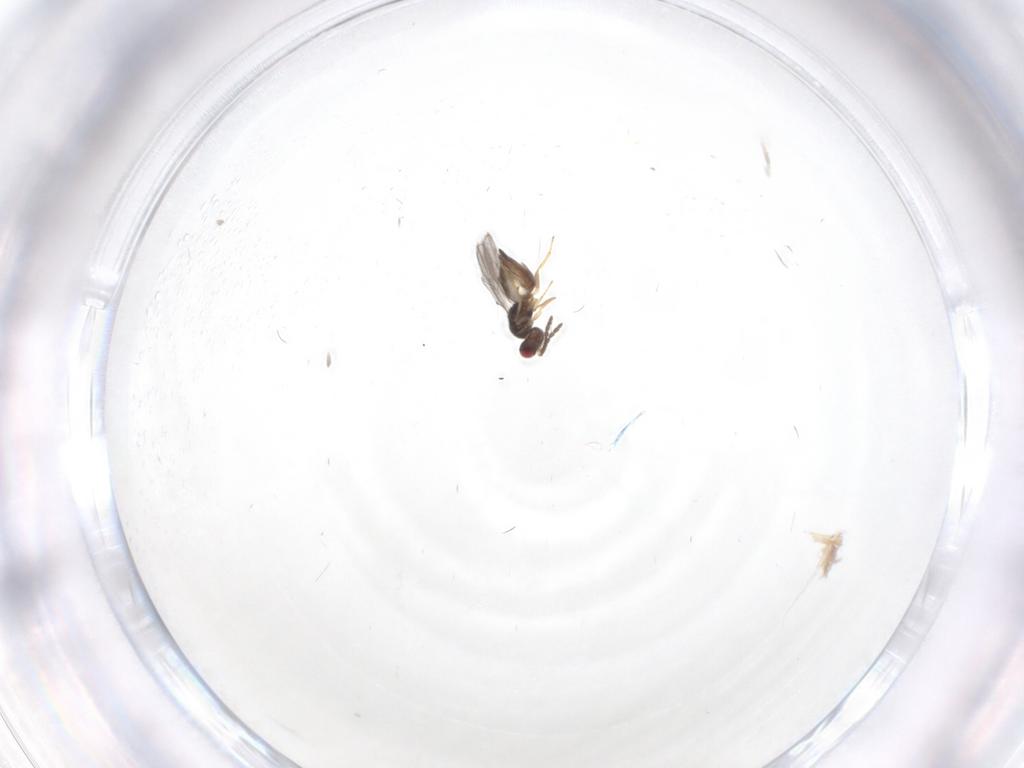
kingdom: Animalia
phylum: Arthropoda
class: Insecta
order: Hymenoptera
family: Eulophidae
